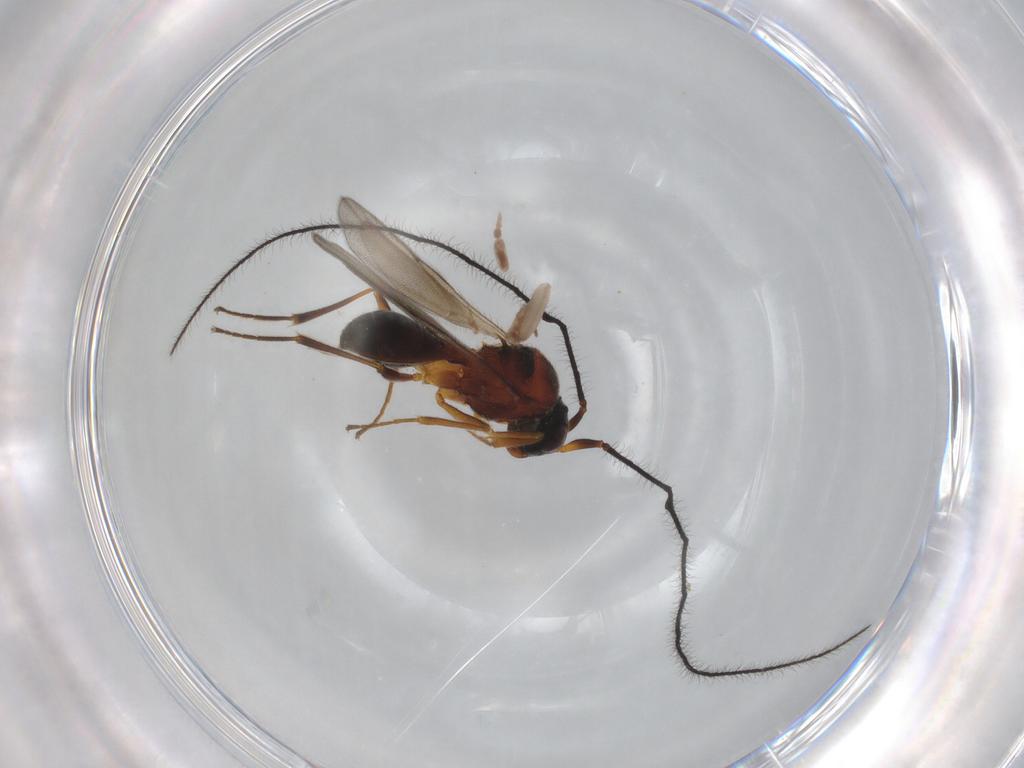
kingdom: Animalia
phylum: Arthropoda
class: Insecta
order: Hymenoptera
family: Scelionidae
